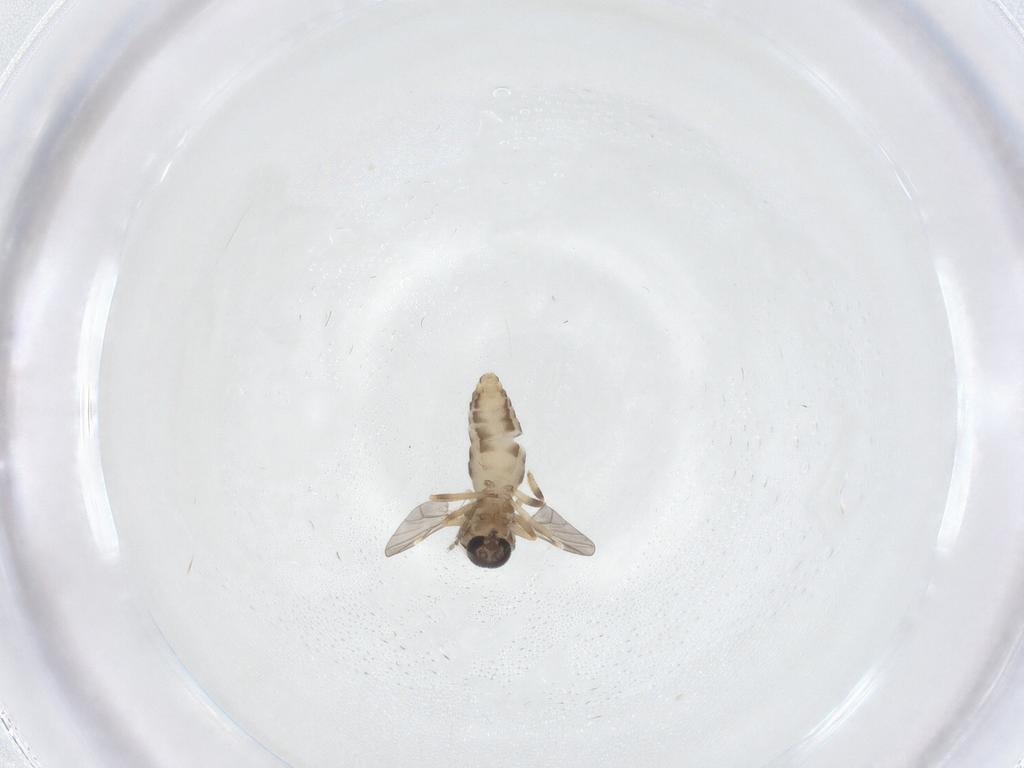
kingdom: Animalia
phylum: Arthropoda
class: Insecta
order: Diptera
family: Ceratopogonidae
